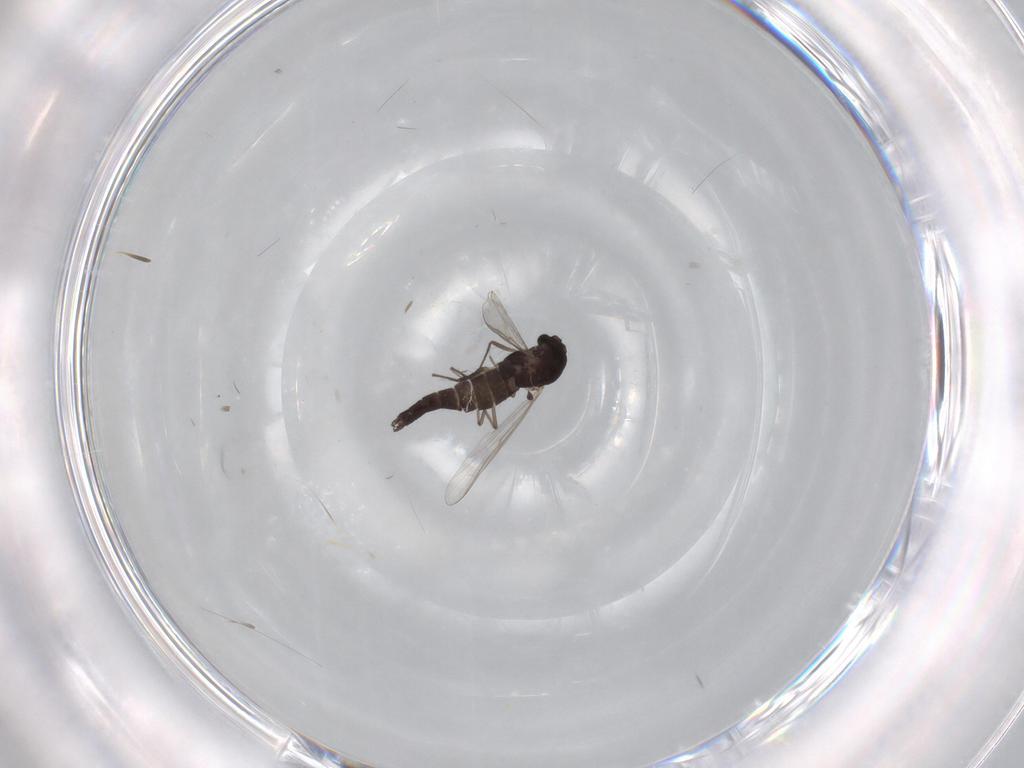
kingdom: Animalia
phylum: Arthropoda
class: Insecta
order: Diptera
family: Chironomidae
